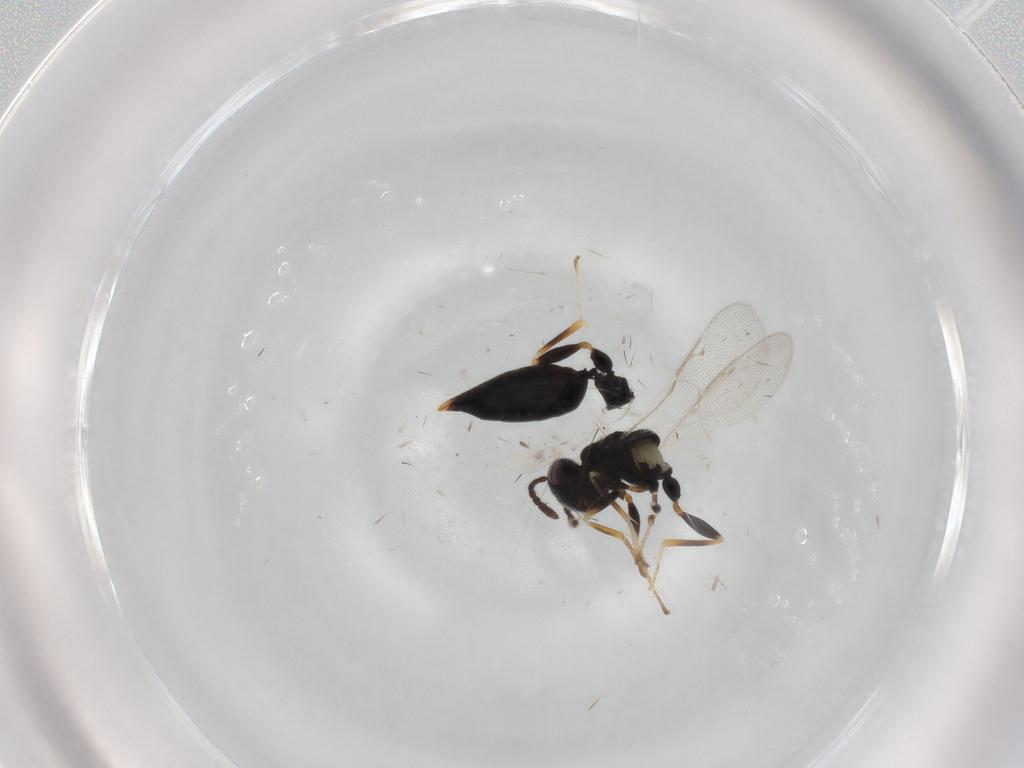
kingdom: Animalia
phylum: Arthropoda
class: Insecta
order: Hymenoptera
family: Eurytomidae
